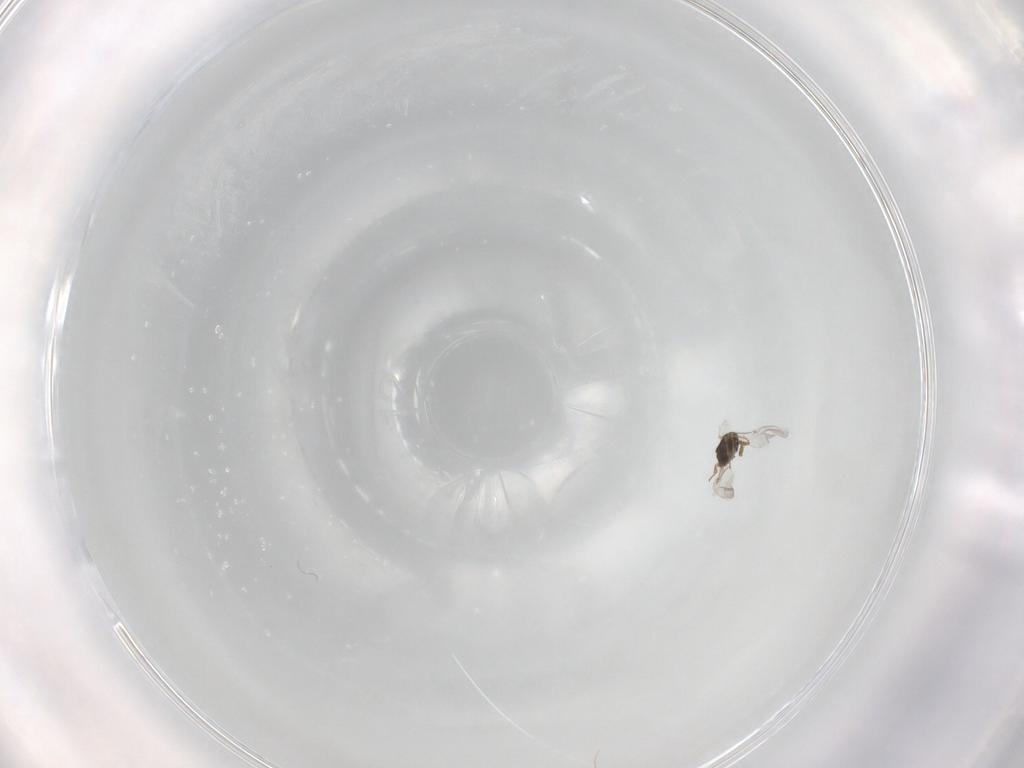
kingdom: Animalia
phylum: Arthropoda
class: Insecta
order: Hymenoptera
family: Encyrtidae
